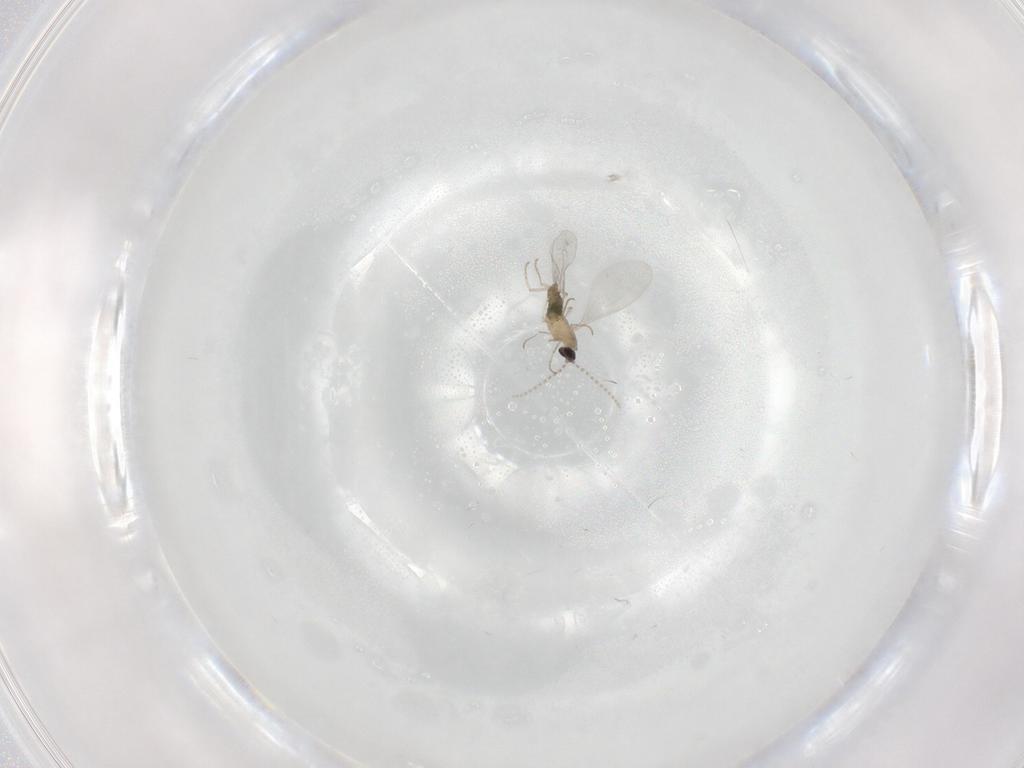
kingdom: Animalia
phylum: Arthropoda
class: Insecta
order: Diptera
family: Cecidomyiidae
